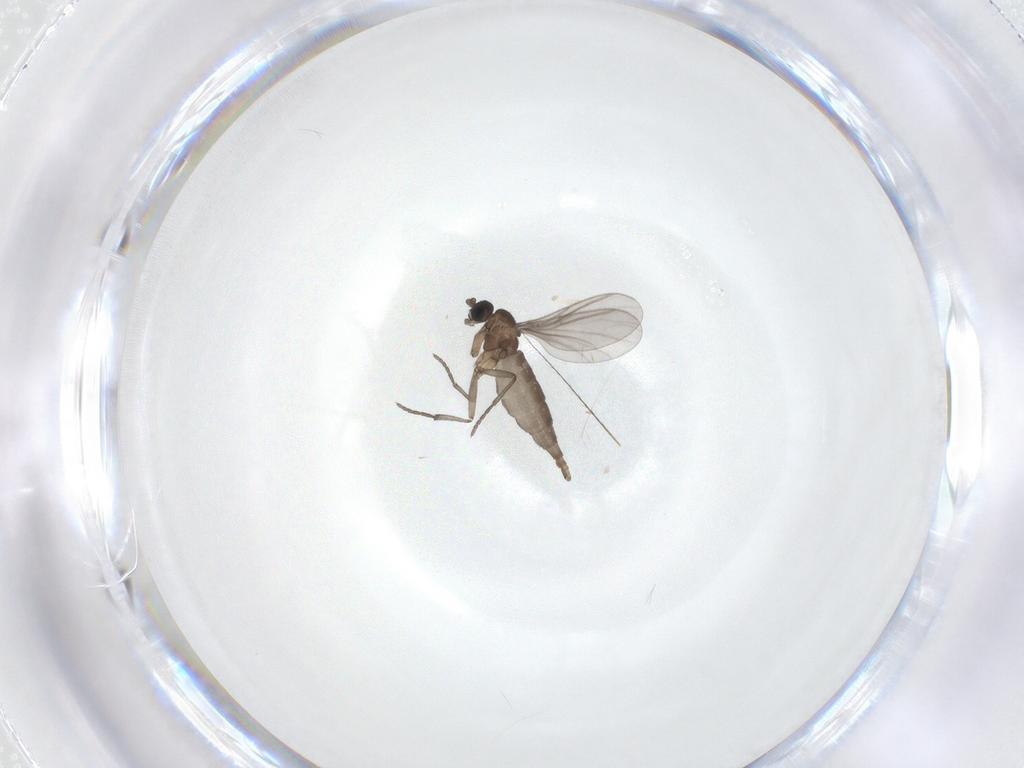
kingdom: Animalia
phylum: Arthropoda
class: Insecta
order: Diptera
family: Sciaridae
